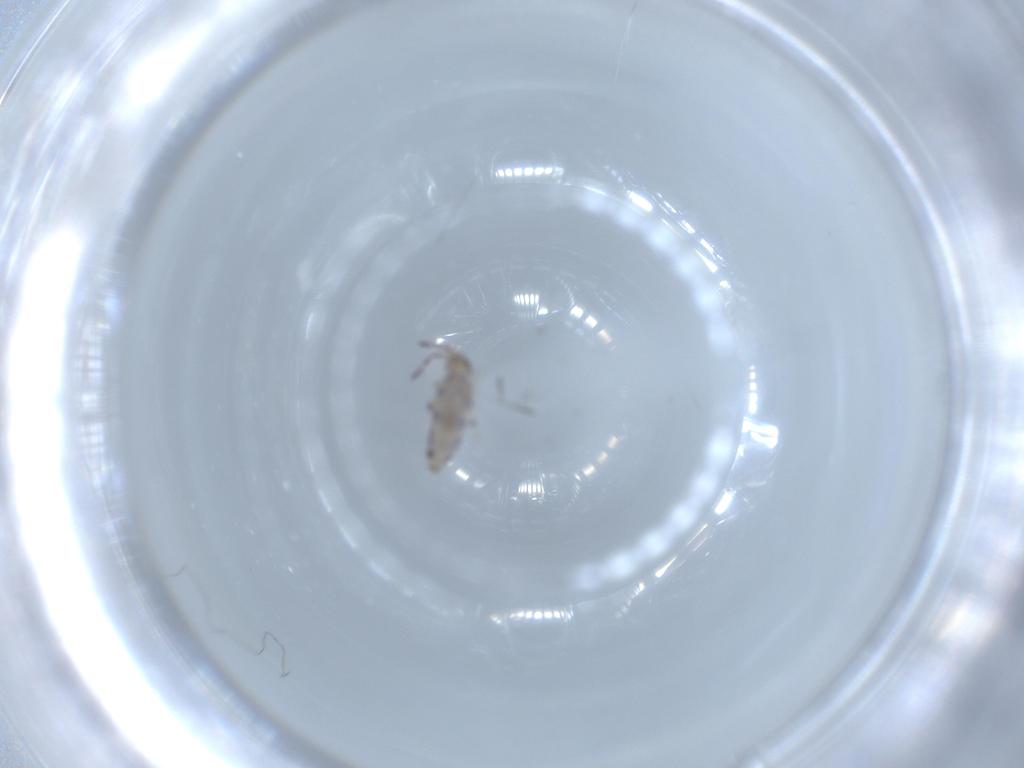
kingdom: Animalia
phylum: Arthropoda
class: Collembola
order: Entomobryomorpha
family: Entomobryidae
